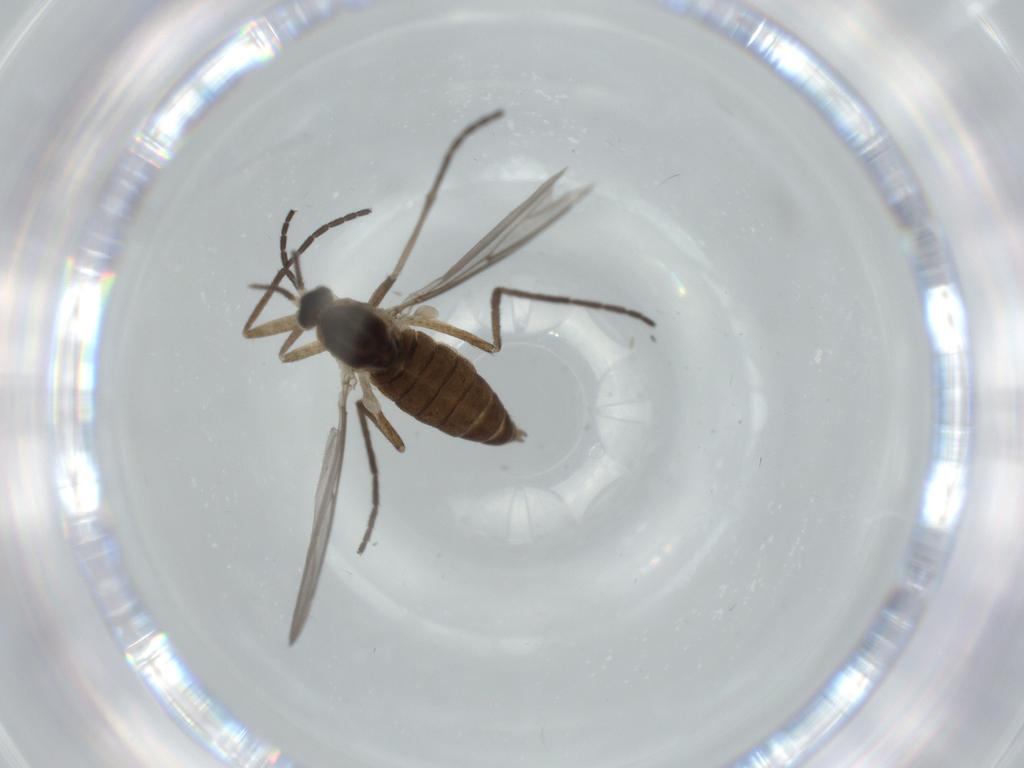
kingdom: Animalia
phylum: Arthropoda
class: Insecta
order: Diptera
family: Cecidomyiidae
